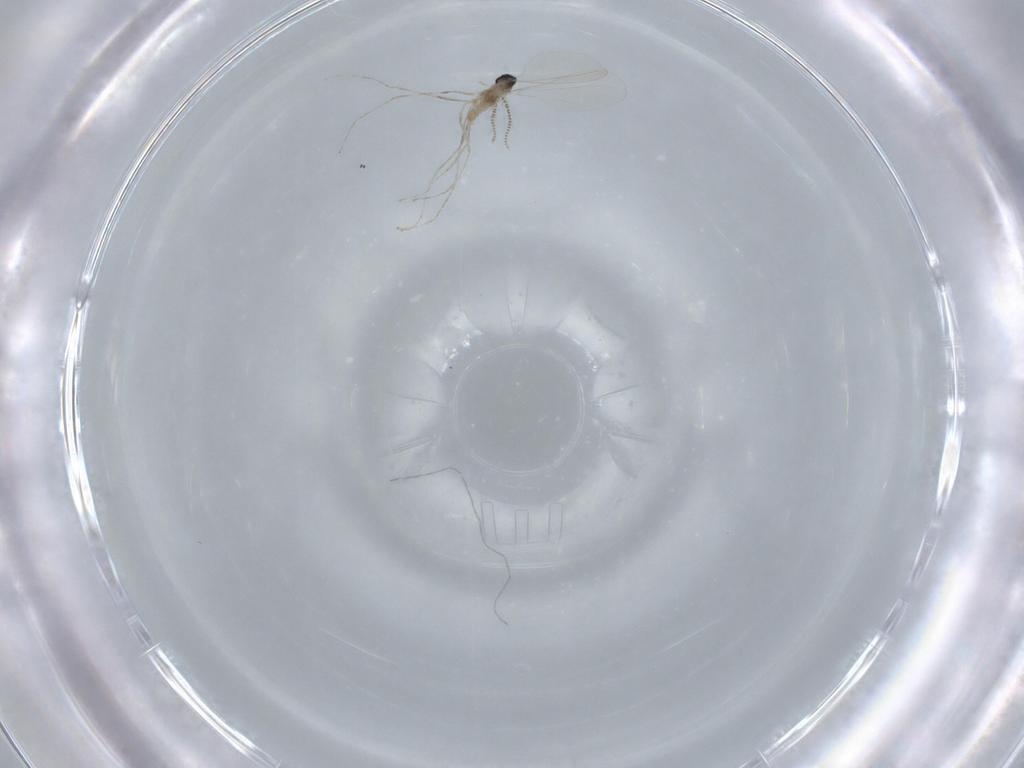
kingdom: Animalia
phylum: Arthropoda
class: Insecta
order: Diptera
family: Cecidomyiidae
